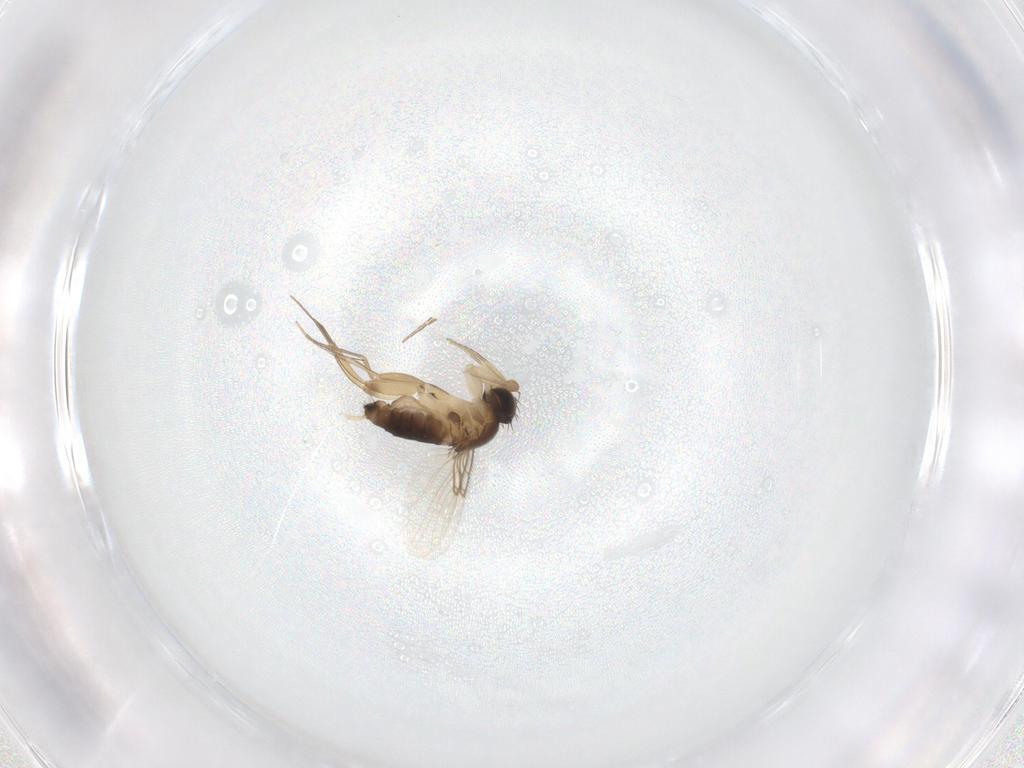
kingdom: Animalia
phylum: Arthropoda
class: Insecta
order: Diptera
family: Phoridae
